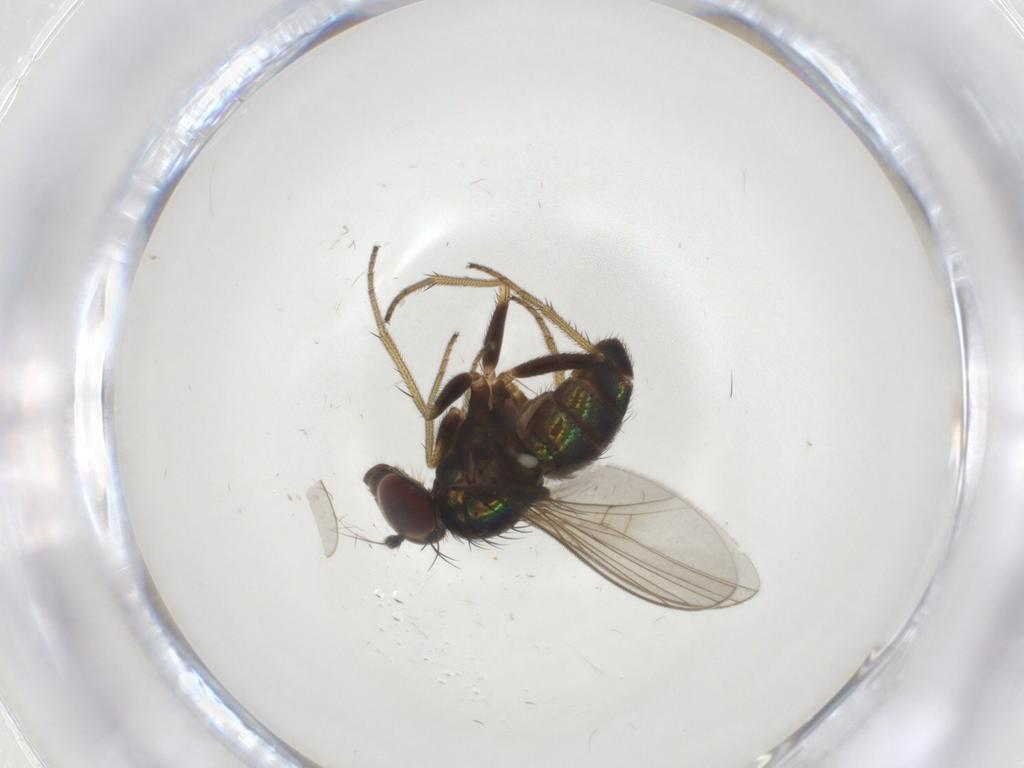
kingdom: Animalia
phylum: Arthropoda
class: Insecta
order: Diptera
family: Dolichopodidae
